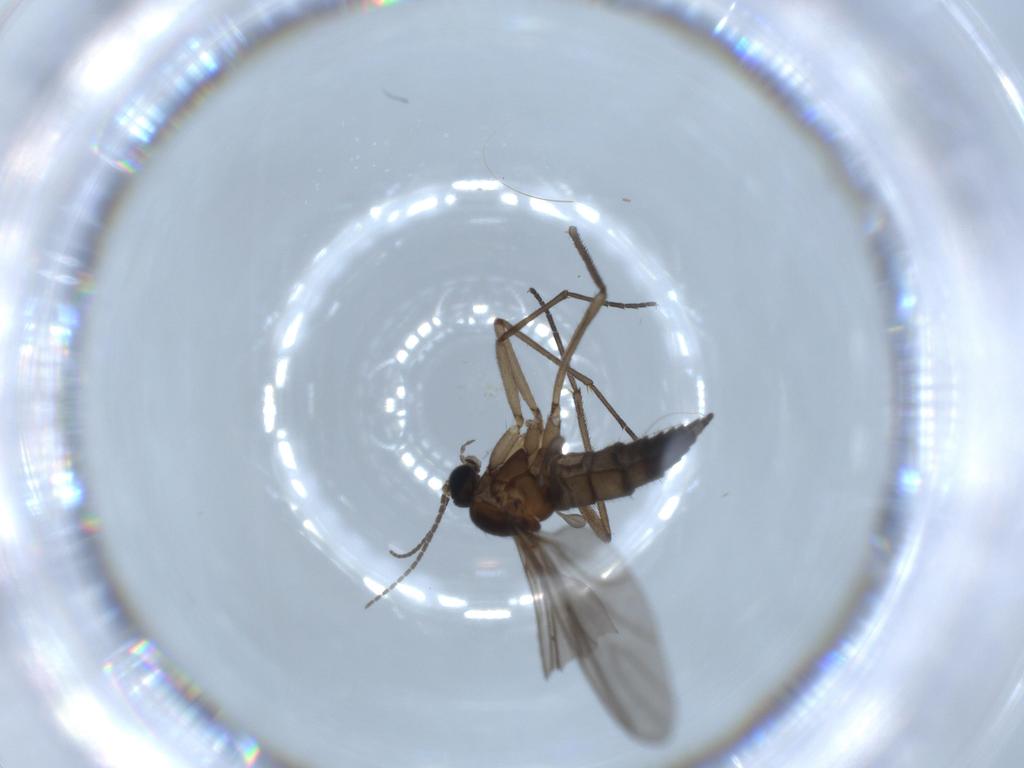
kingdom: Animalia
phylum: Arthropoda
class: Insecta
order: Diptera
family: Sciaridae
